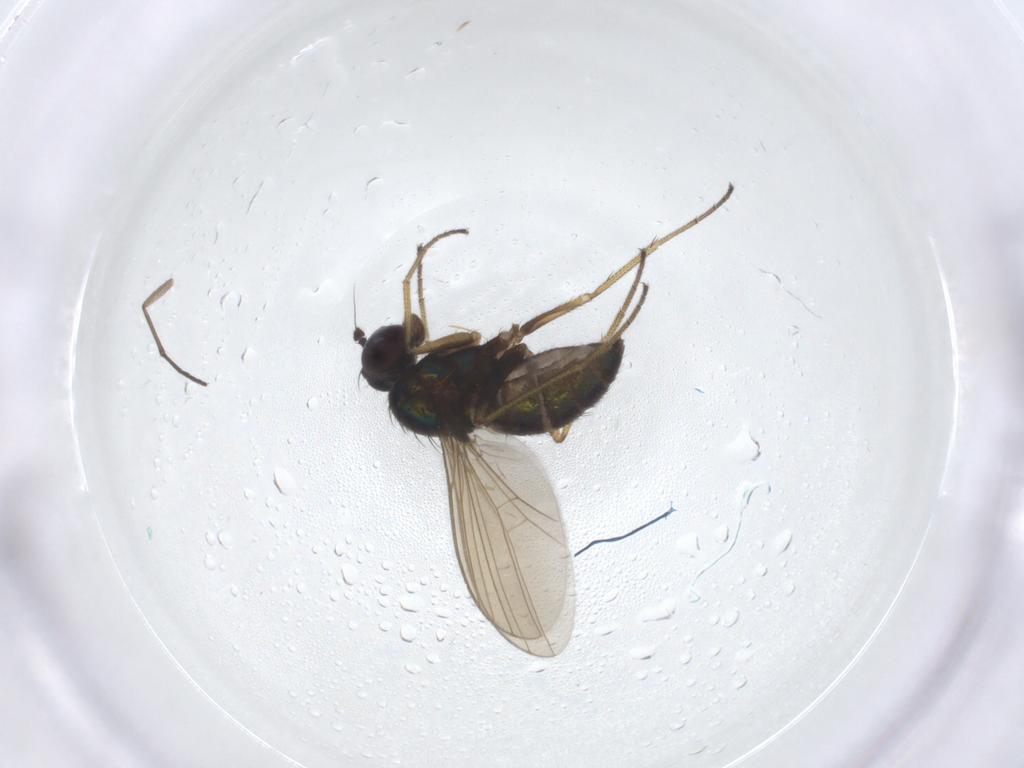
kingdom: Animalia
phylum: Arthropoda
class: Insecta
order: Diptera
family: Dolichopodidae
